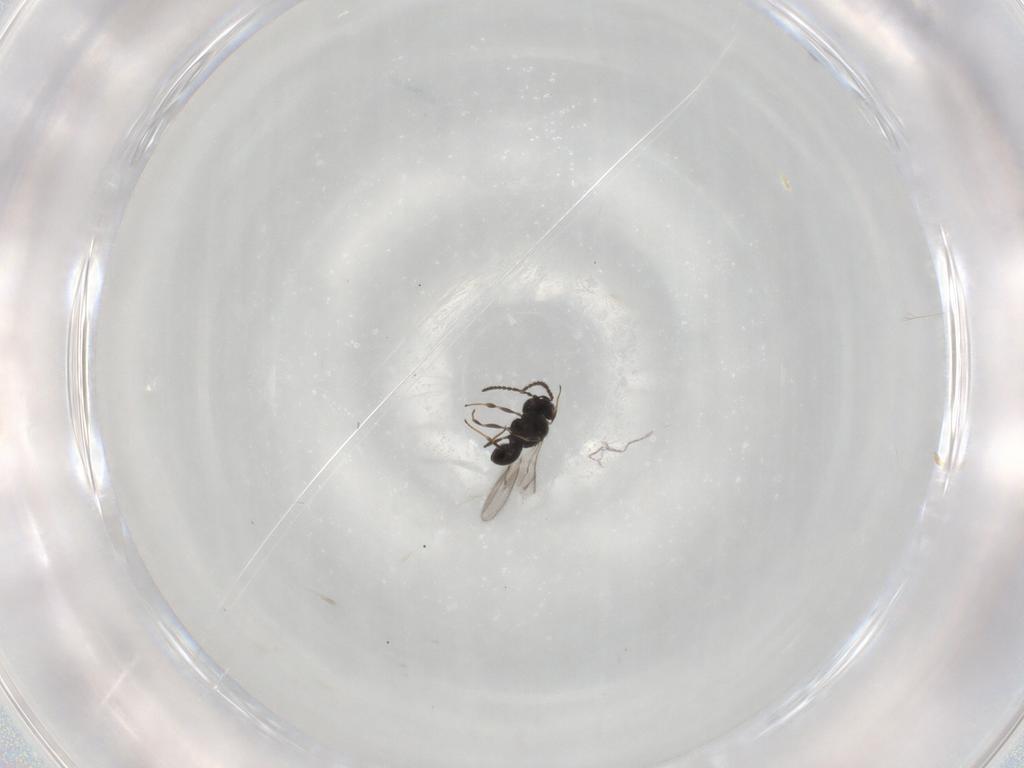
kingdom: Animalia
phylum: Arthropoda
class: Insecta
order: Hymenoptera
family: Scelionidae
